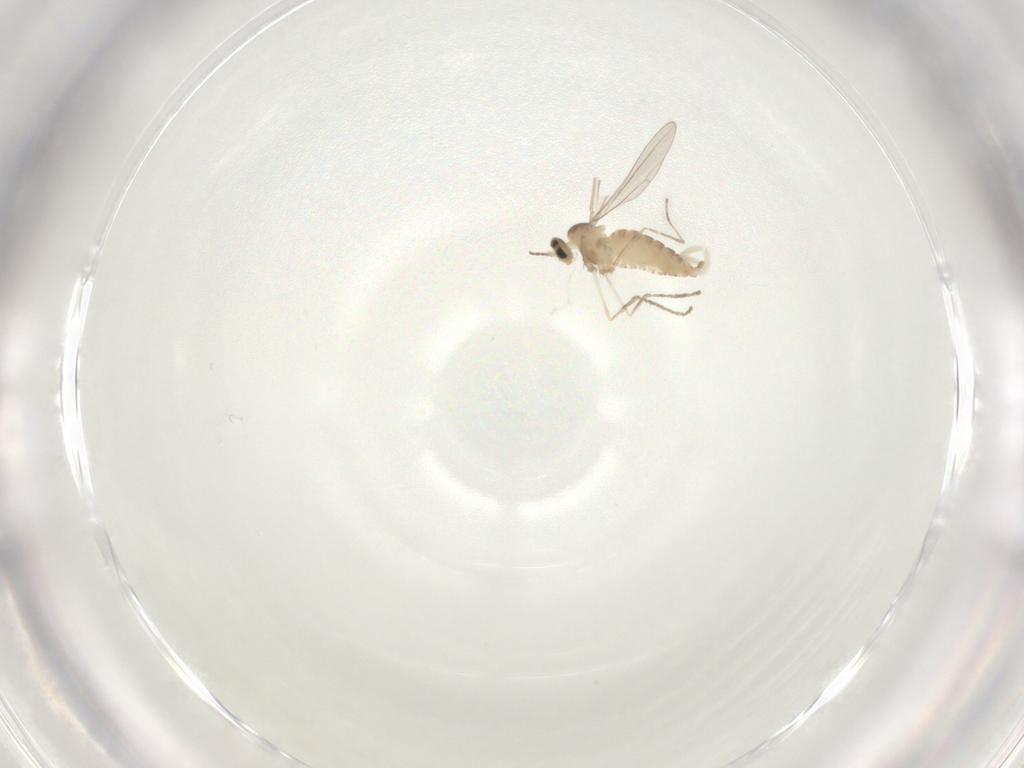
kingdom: Animalia
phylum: Arthropoda
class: Insecta
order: Diptera
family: Cecidomyiidae
